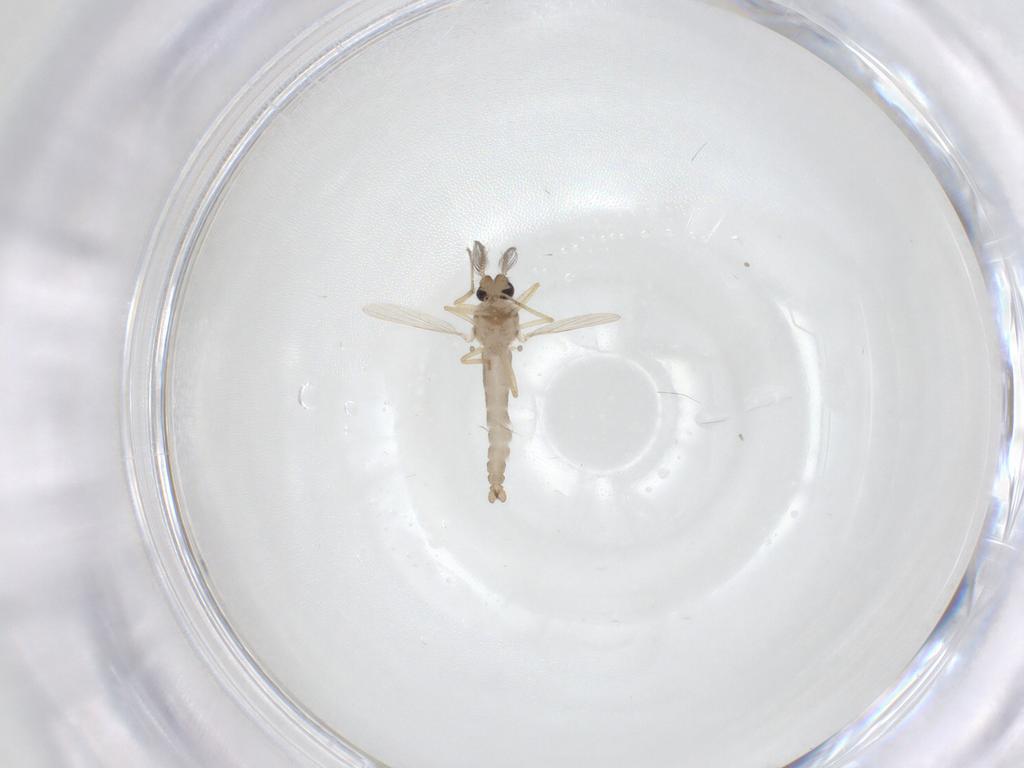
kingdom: Animalia
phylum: Arthropoda
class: Insecta
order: Diptera
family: Ceratopogonidae
